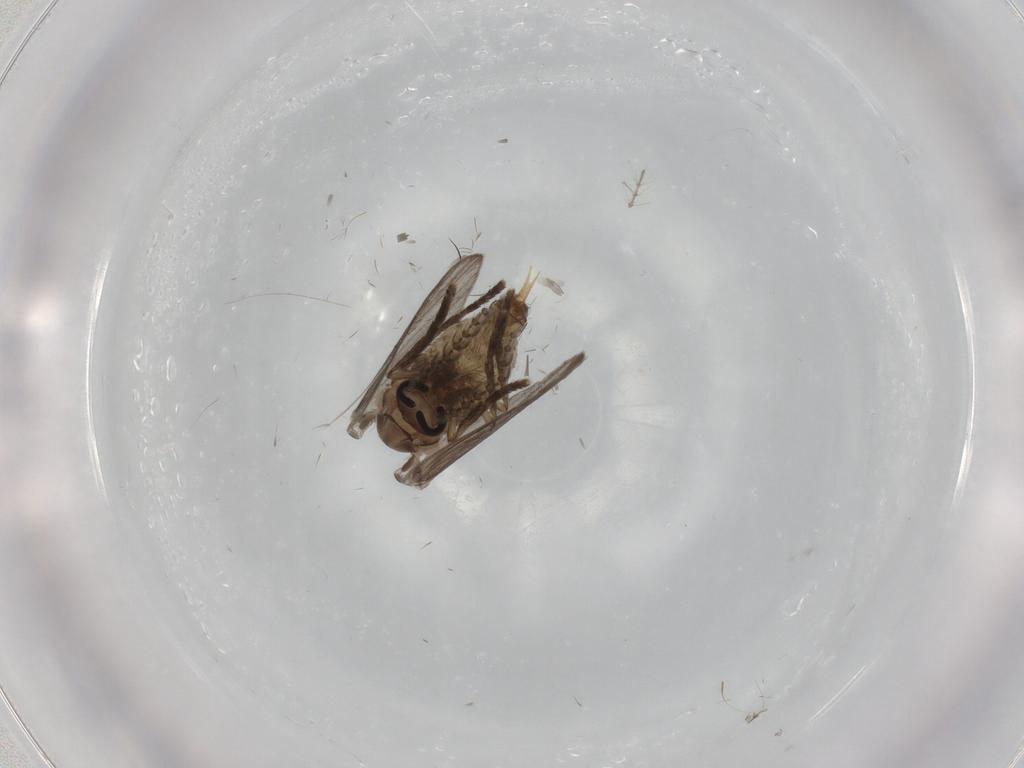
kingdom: Animalia
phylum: Arthropoda
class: Insecta
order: Diptera
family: Psychodidae
